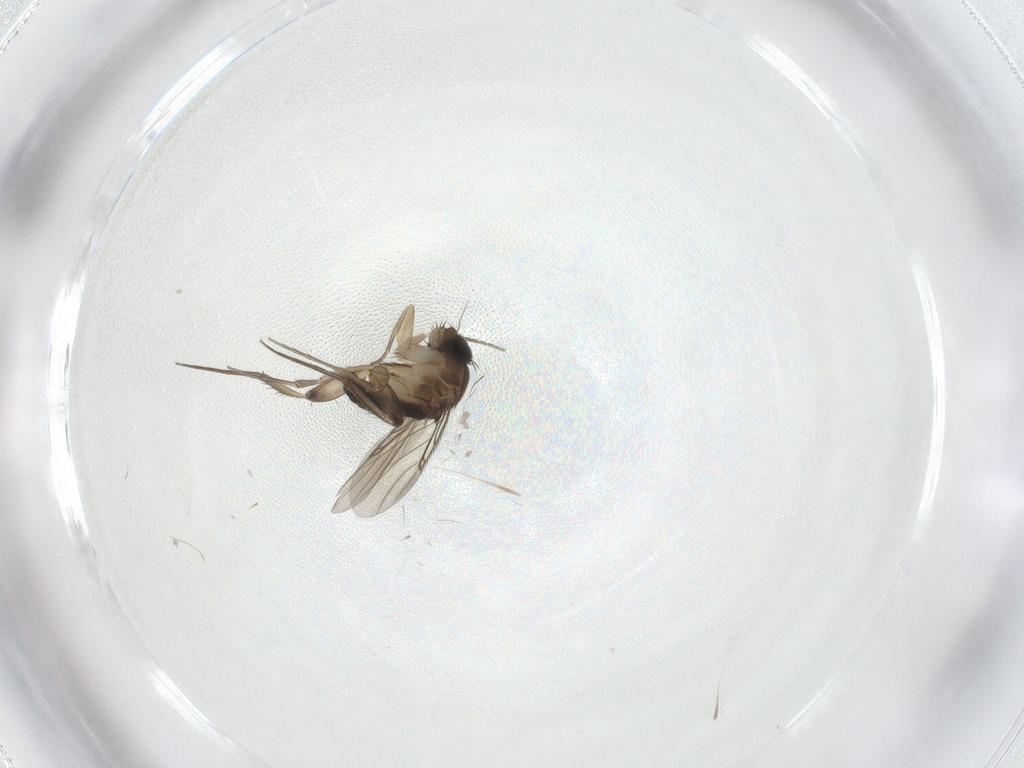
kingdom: Animalia
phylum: Arthropoda
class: Insecta
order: Diptera
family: Phoridae
